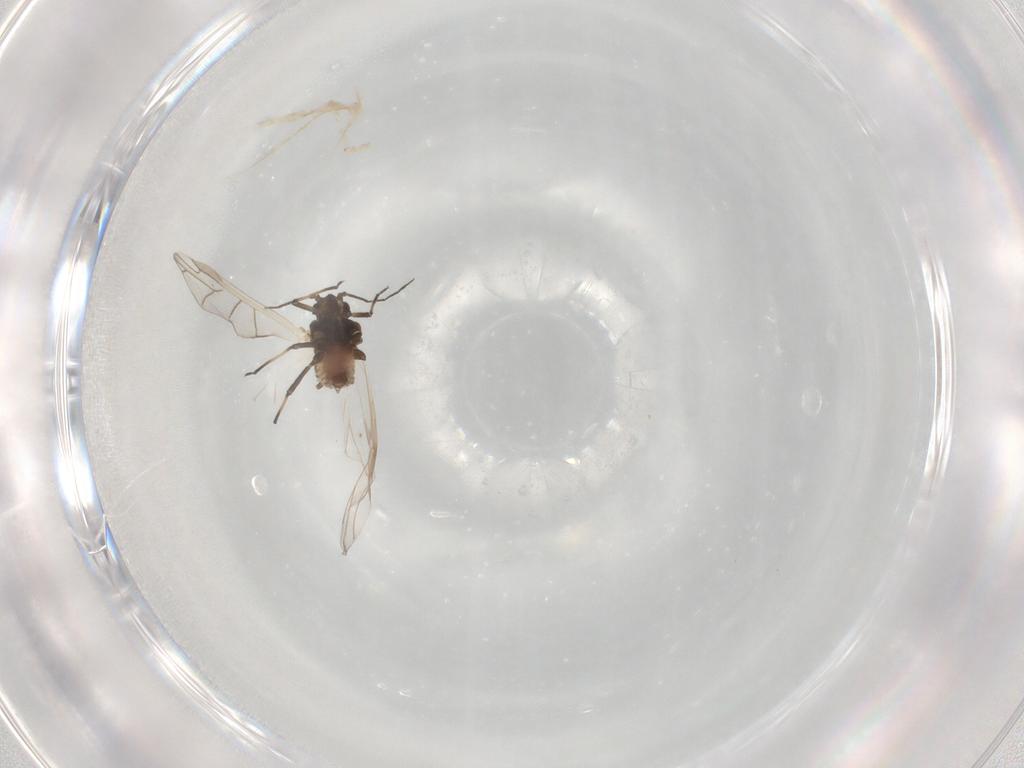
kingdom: Animalia
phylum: Arthropoda
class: Insecta
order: Hemiptera
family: Aphididae
